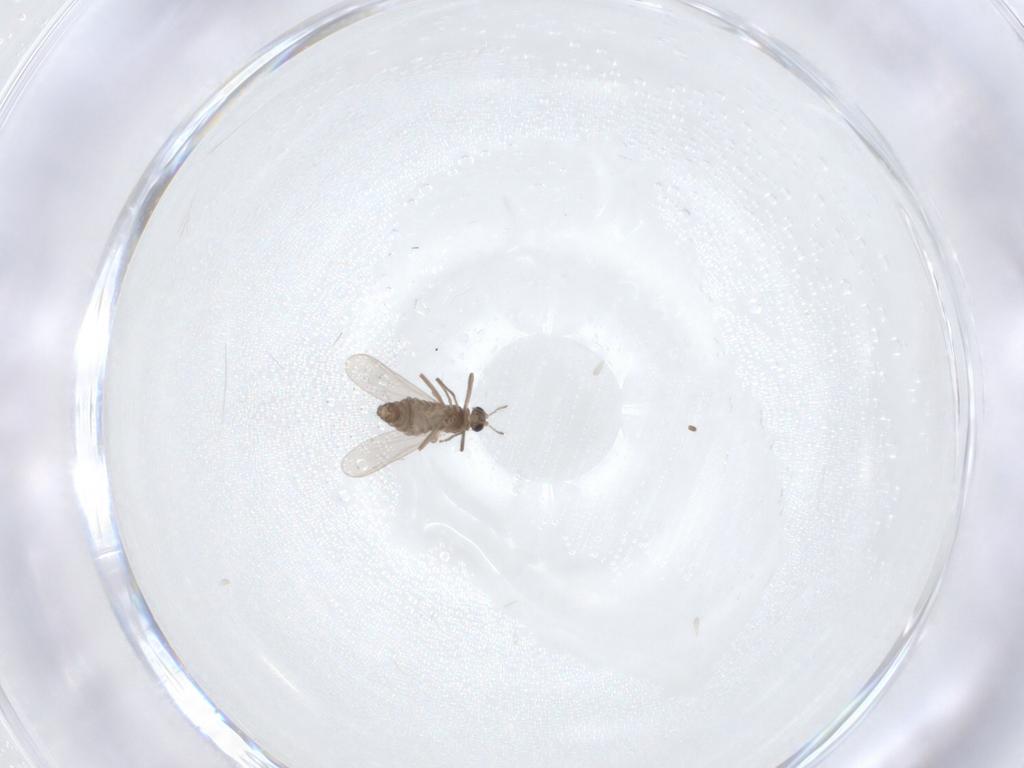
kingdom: Animalia
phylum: Arthropoda
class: Insecta
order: Diptera
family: Chironomidae
